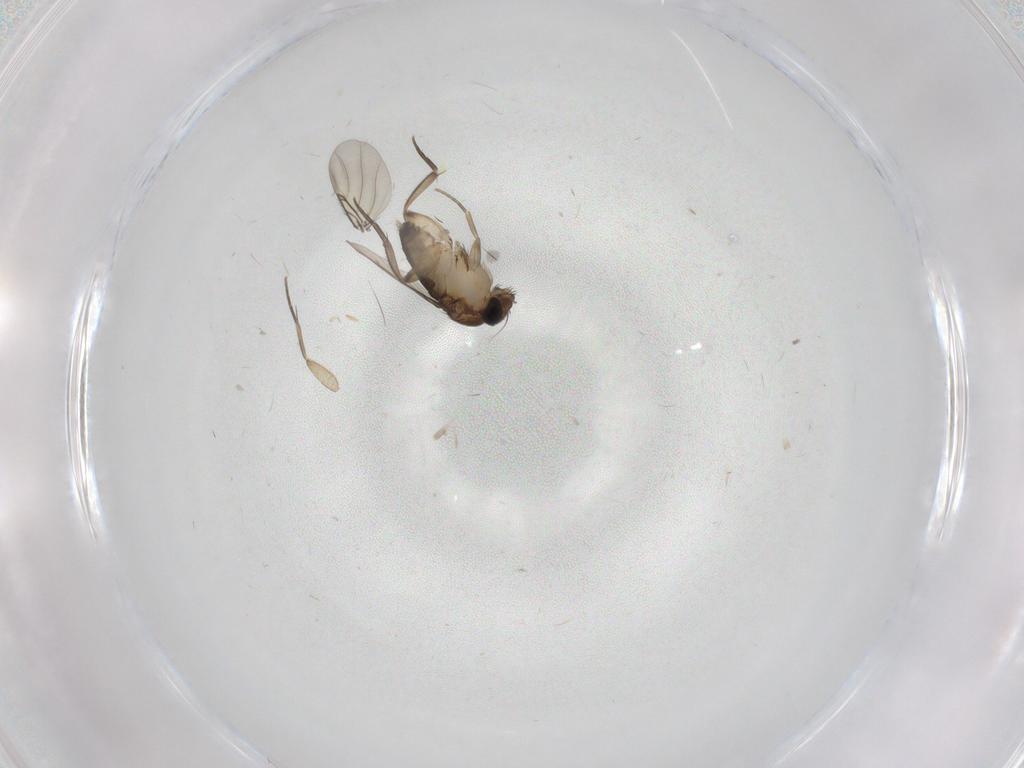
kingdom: Animalia
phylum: Arthropoda
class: Insecta
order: Diptera
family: Phoridae
